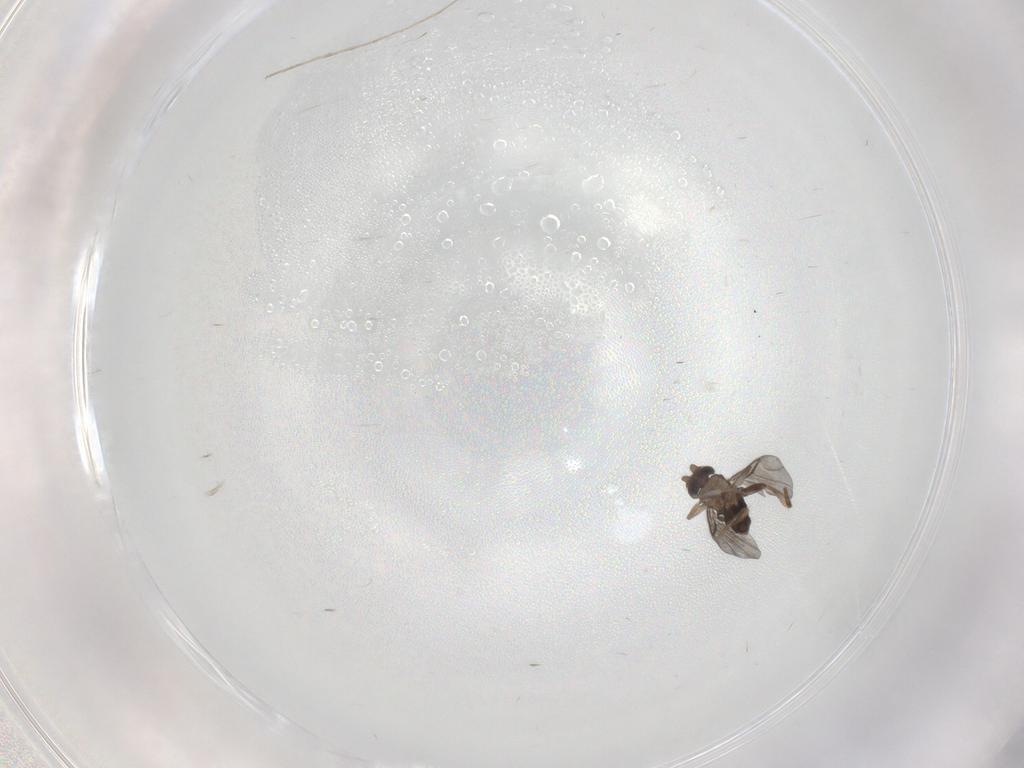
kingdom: Animalia
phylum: Arthropoda
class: Insecta
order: Diptera
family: Cecidomyiidae
